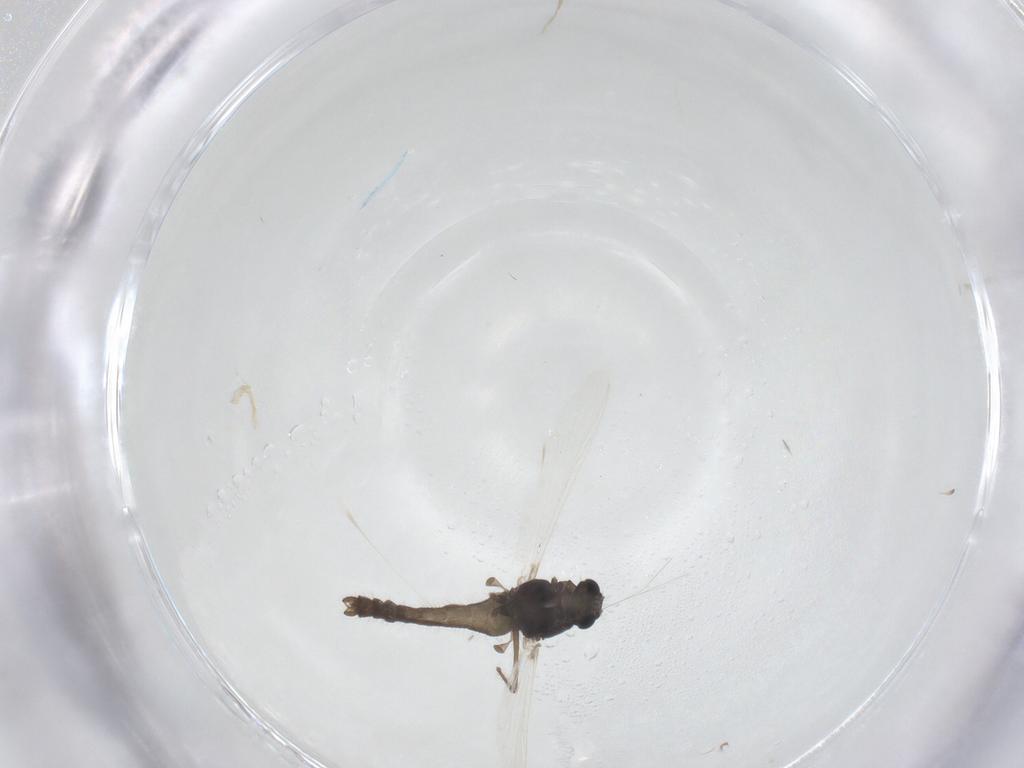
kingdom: Animalia
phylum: Arthropoda
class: Insecta
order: Diptera
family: Chironomidae
